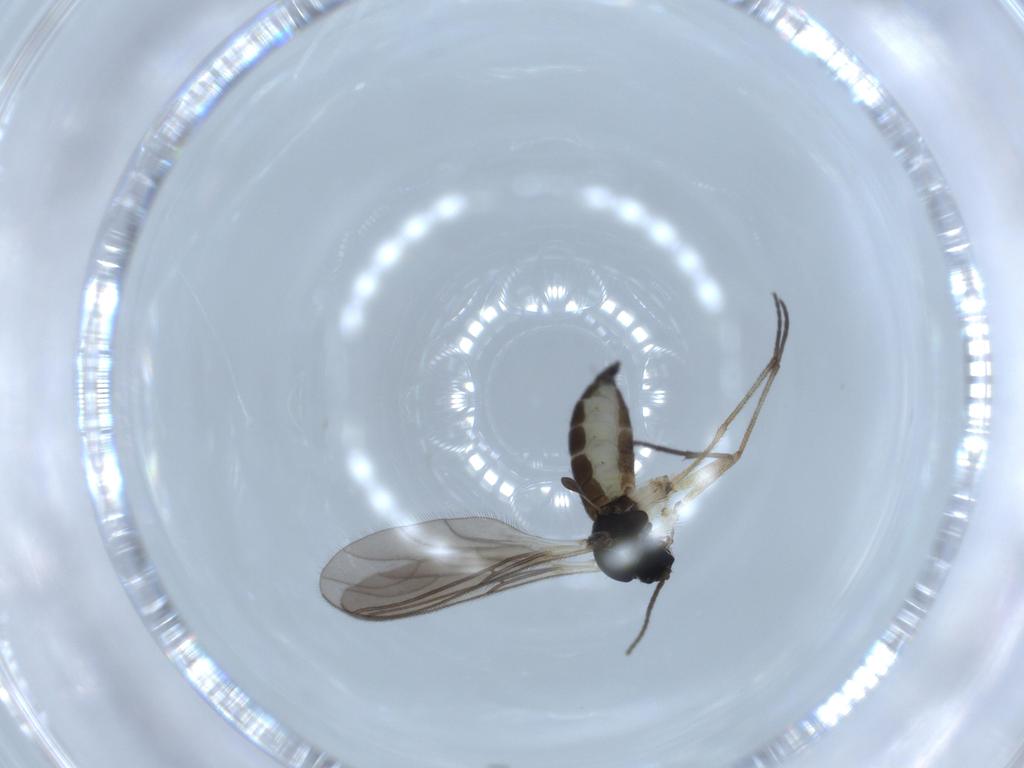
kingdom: Animalia
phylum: Arthropoda
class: Insecta
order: Diptera
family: Sciaridae
